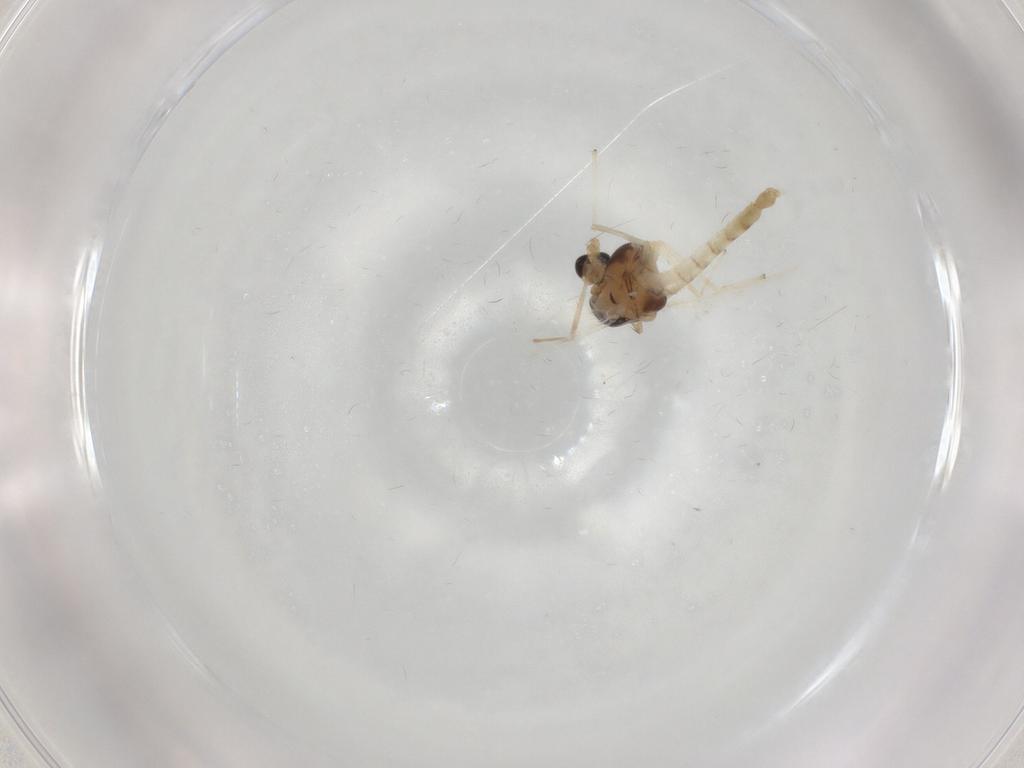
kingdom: Animalia
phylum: Arthropoda
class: Insecta
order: Diptera
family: Chironomidae
